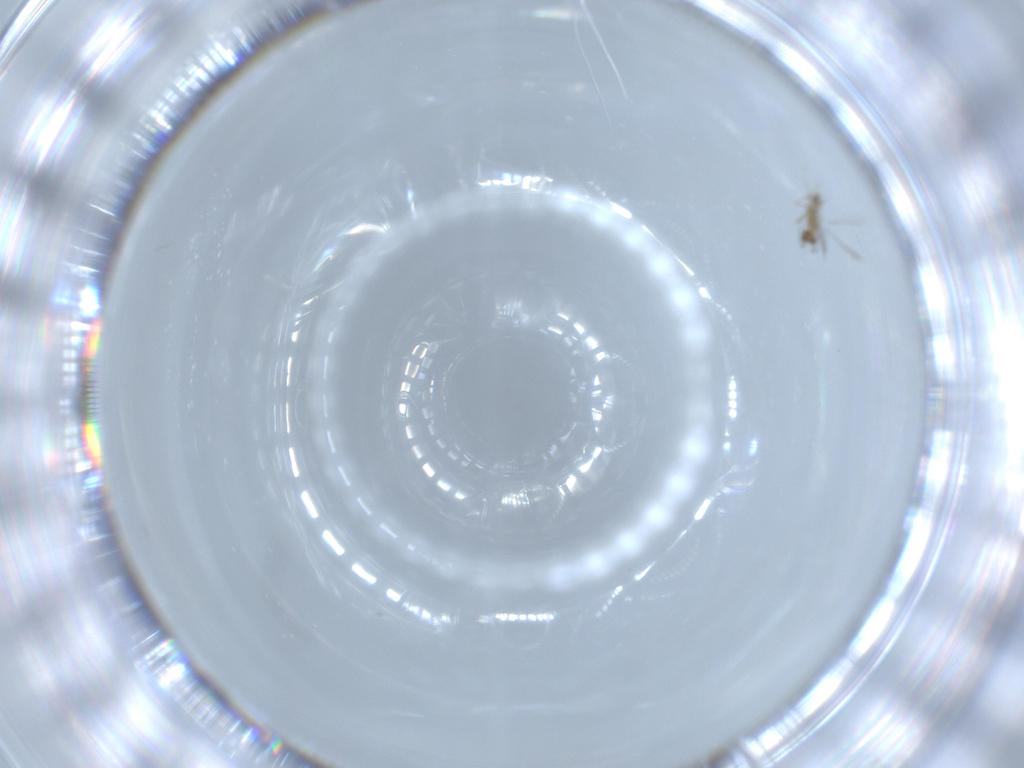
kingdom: Animalia
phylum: Arthropoda
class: Insecta
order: Hymenoptera
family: Mymaridae
